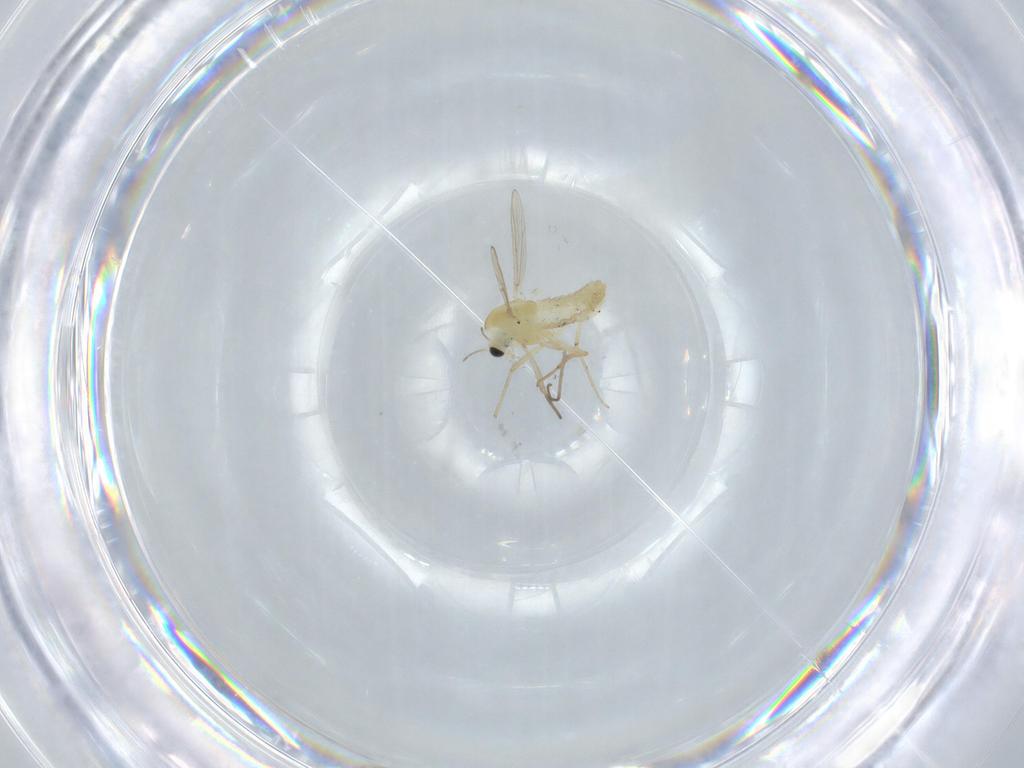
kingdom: Animalia
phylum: Arthropoda
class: Insecta
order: Diptera
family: Chironomidae
